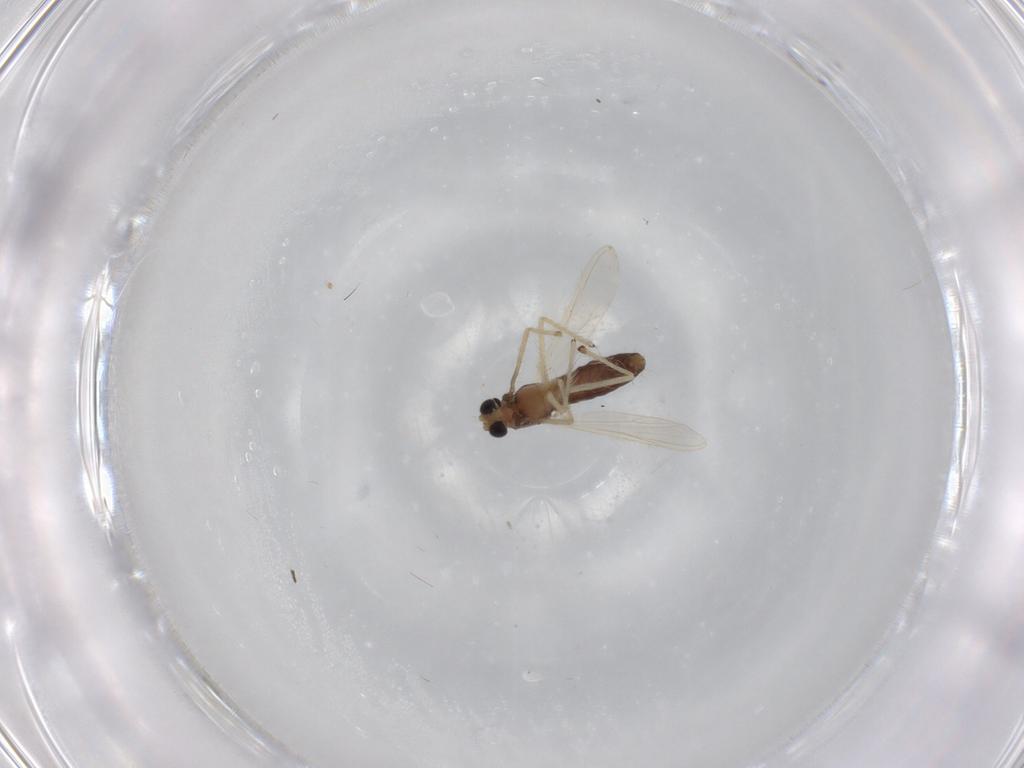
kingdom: Animalia
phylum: Arthropoda
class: Insecta
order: Diptera
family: Chironomidae
